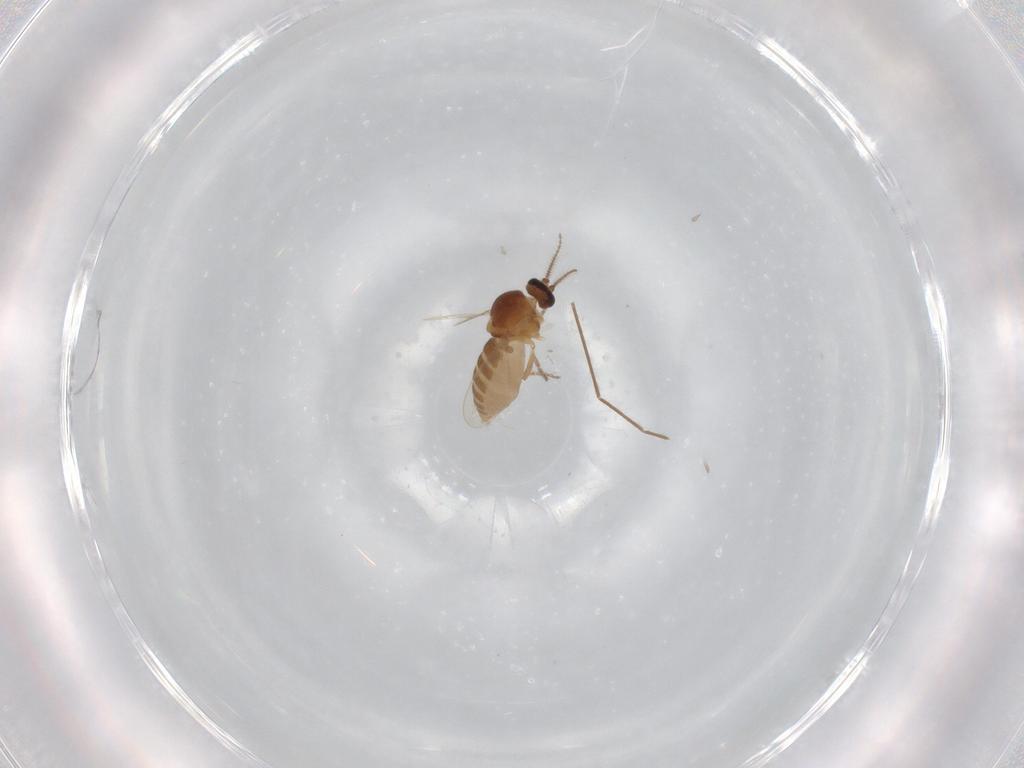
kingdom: Animalia
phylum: Arthropoda
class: Insecta
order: Diptera
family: Ceratopogonidae
